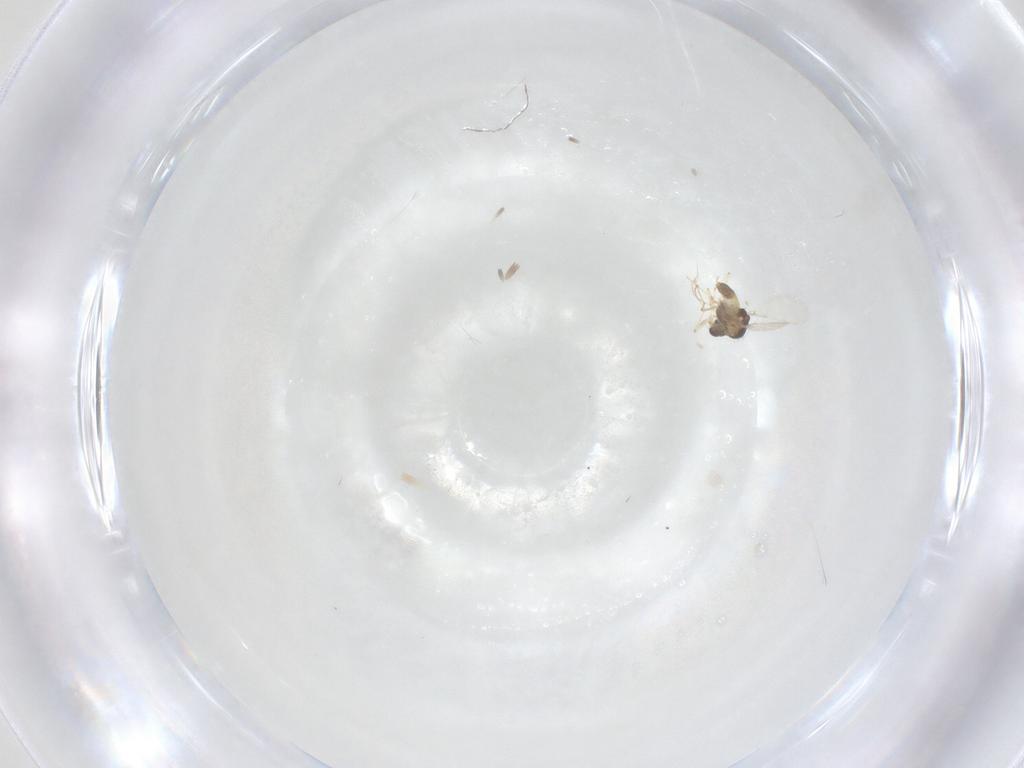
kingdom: Animalia
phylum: Arthropoda
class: Insecta
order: Diptera
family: Chironomidae
